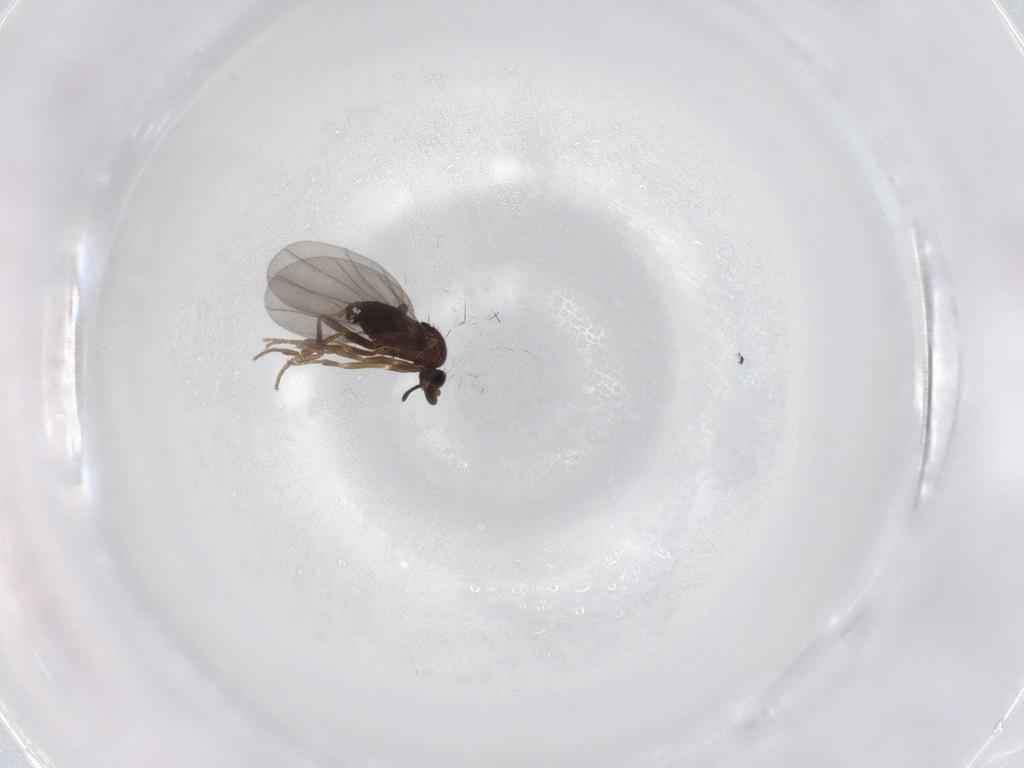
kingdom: Animalia
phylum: Arthropoda
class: Insecta
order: Diptera
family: Chironomidae
